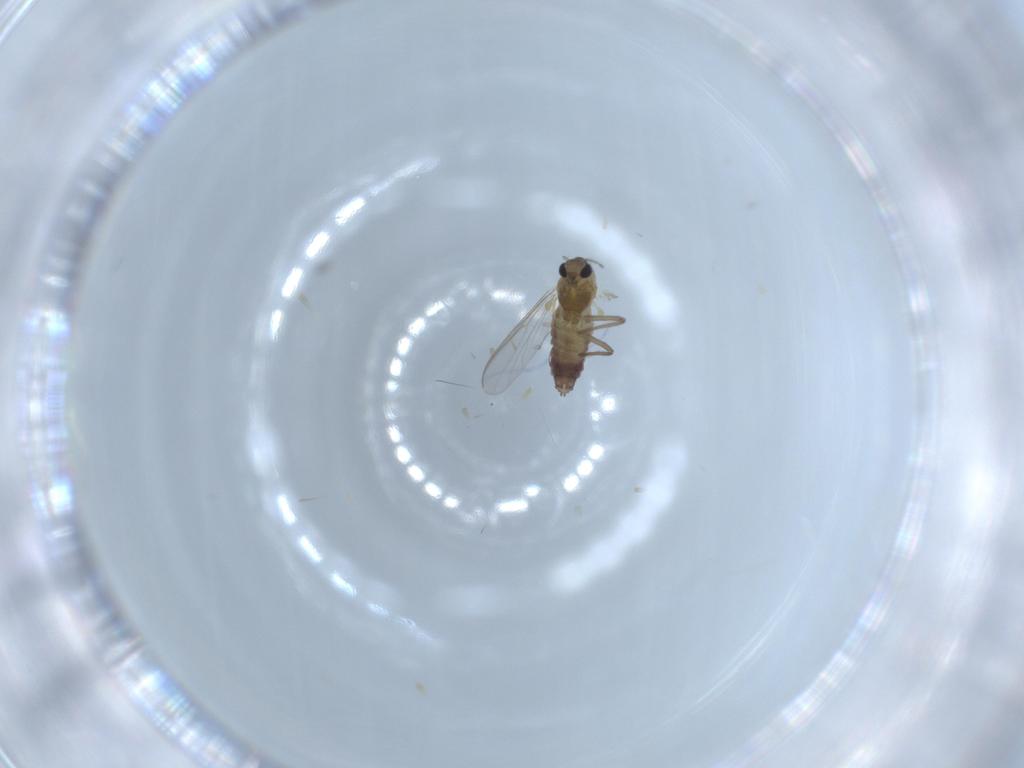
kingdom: Animalia
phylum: Arthropoda
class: Insecta
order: Diptera
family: Chironomidae
